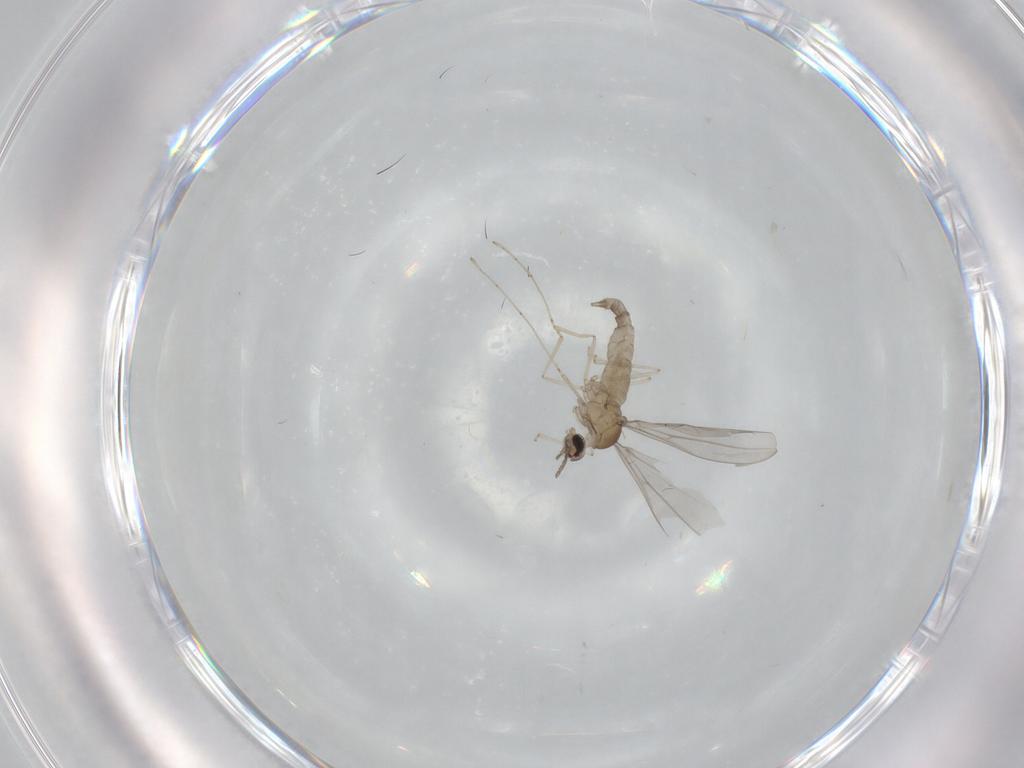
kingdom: Animalia
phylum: Arthropoda
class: Insecta
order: Diptera
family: Cecidomyiidae
